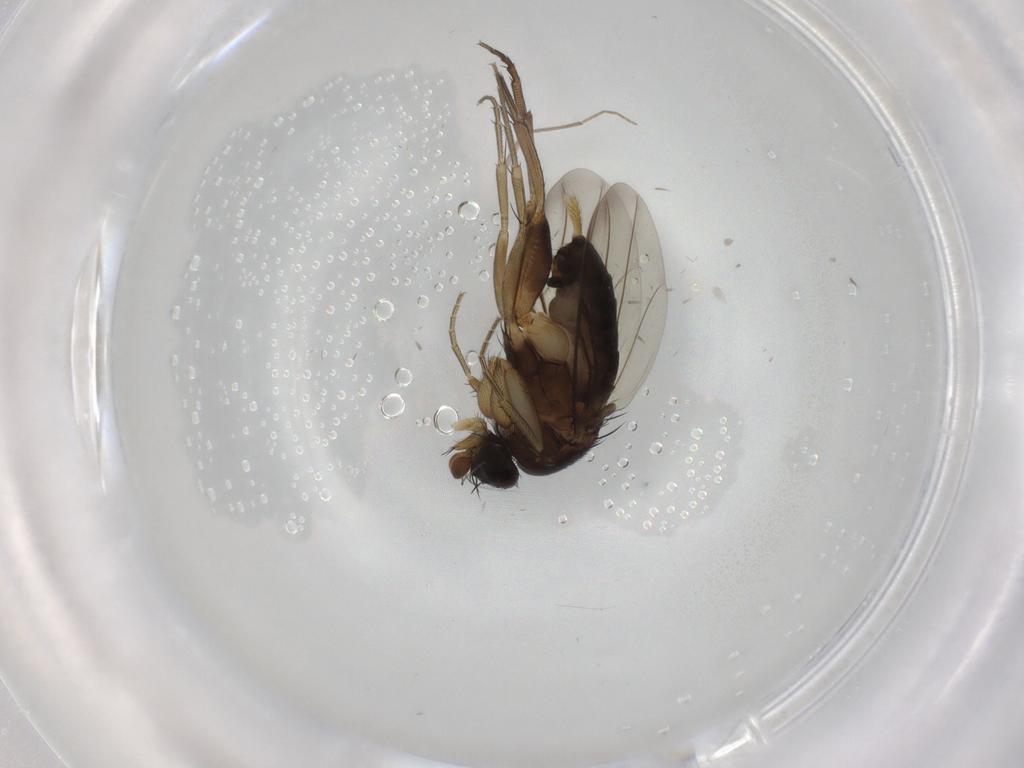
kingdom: Animalia
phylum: Arthropoda
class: Insecta
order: Diptera
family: Phoridae
